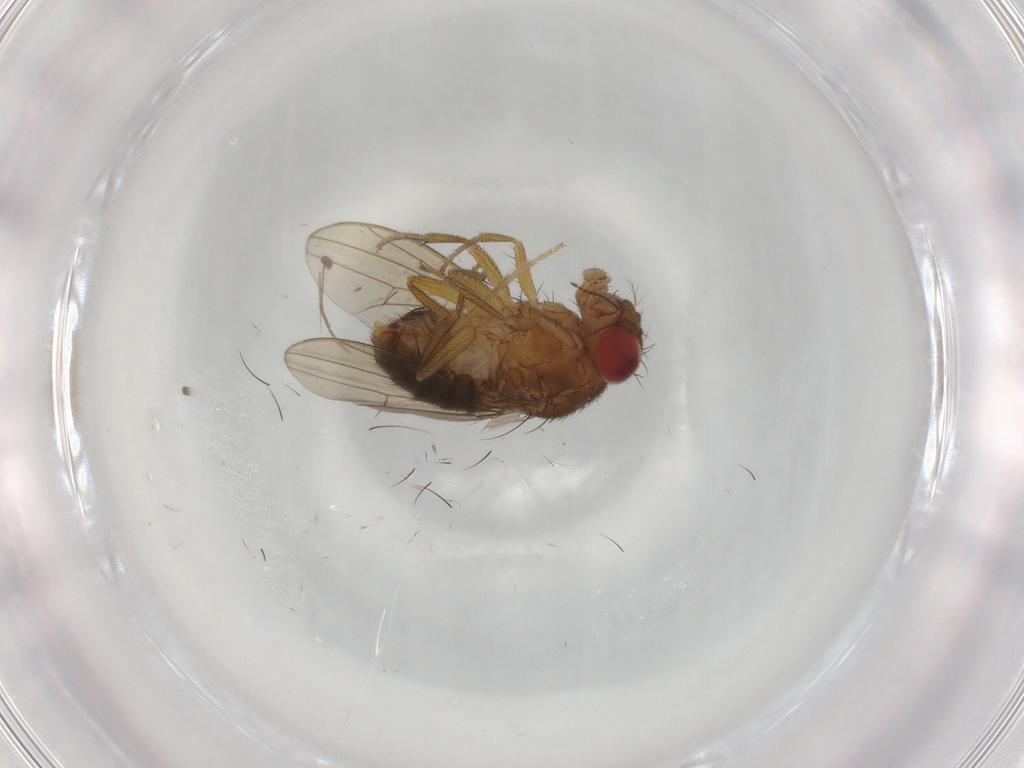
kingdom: Animalia
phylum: Arthropoda
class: Insecta
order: Diptera
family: Drosophilidae
